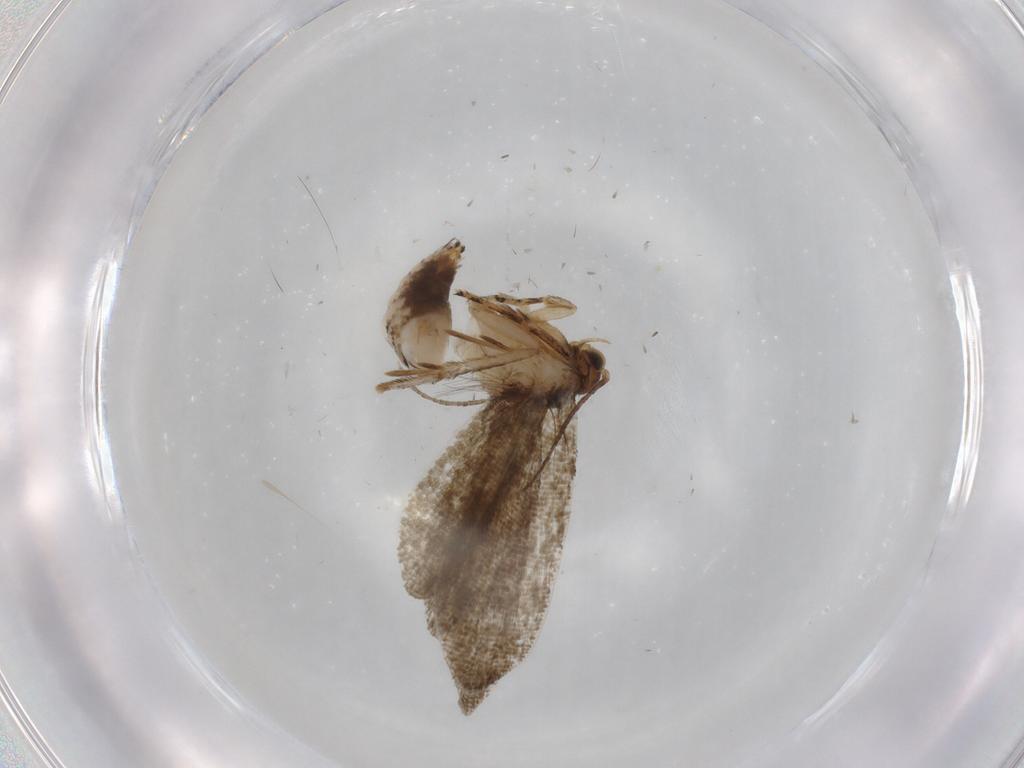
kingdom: Animalia
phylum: Arthropoda
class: Insecta
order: Lepidoptera
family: Crambidae
